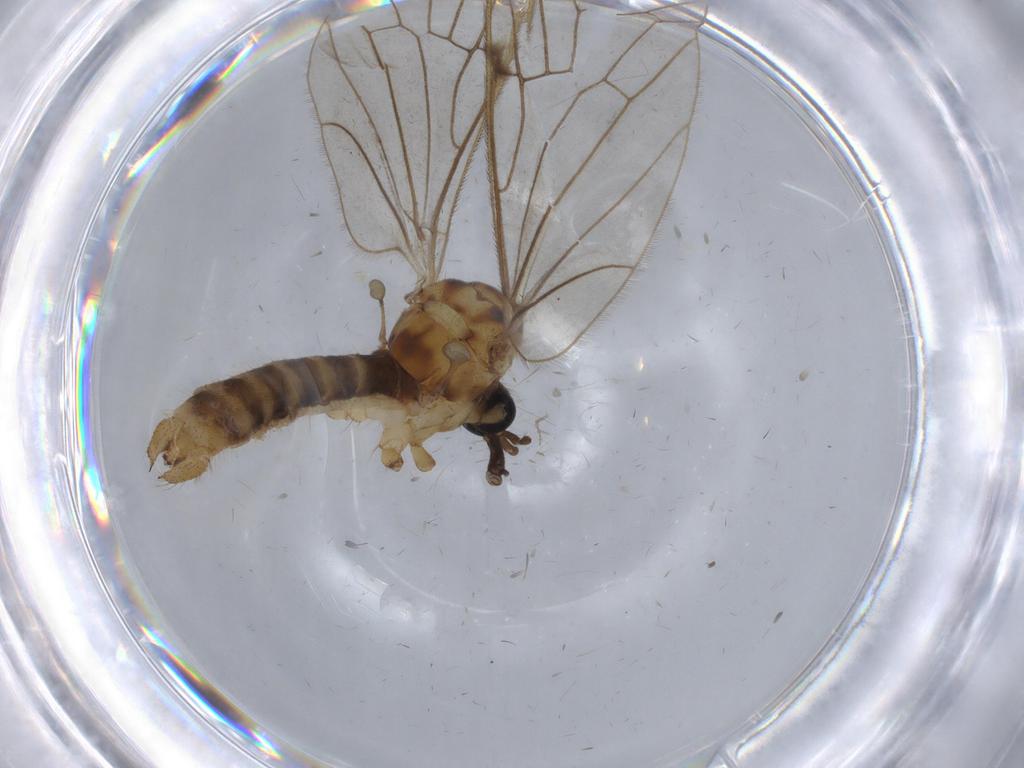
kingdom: Animalia
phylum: Arthropoda
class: Insecta
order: Diptera
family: Psychodidae
